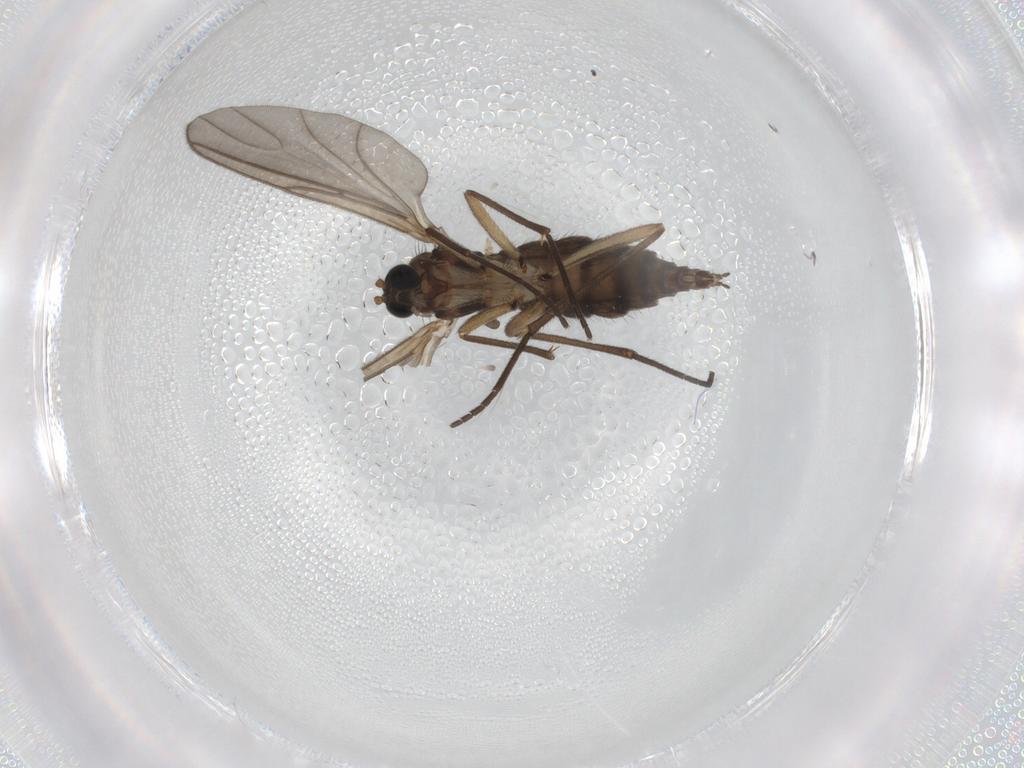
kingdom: Animalia
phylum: Arthropoda
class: Insecta
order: Diptera
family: Sciaridae
